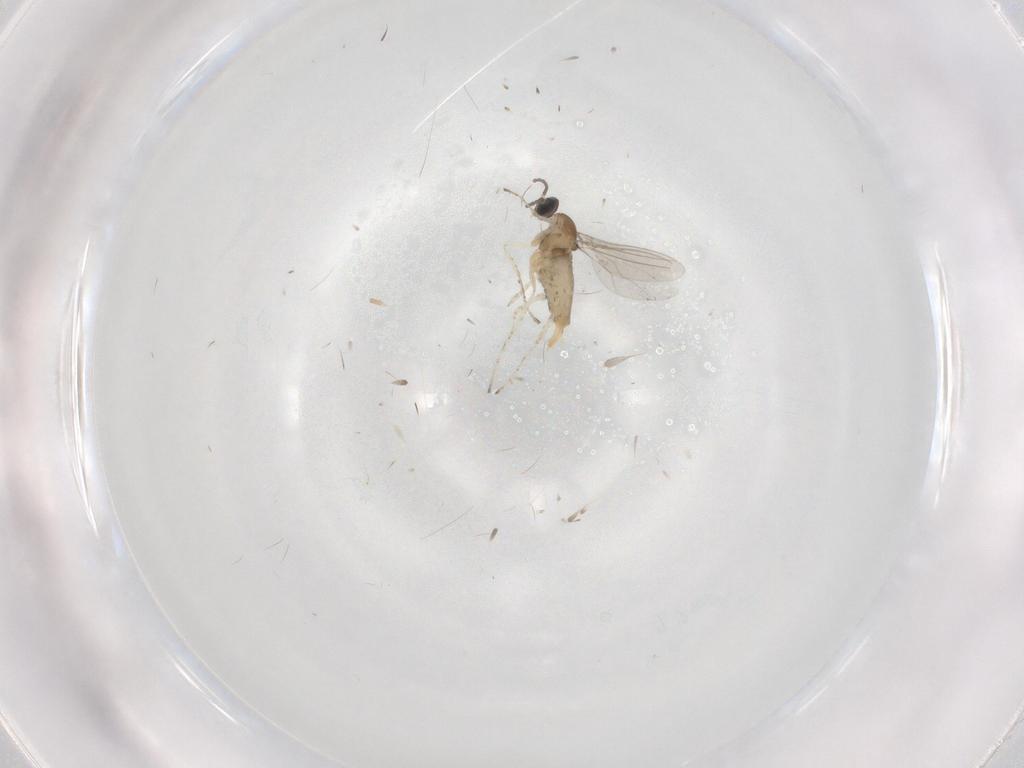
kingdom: Animalia
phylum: Arthropoda
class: Insecta
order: Diptera
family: Cecidomyiidae
